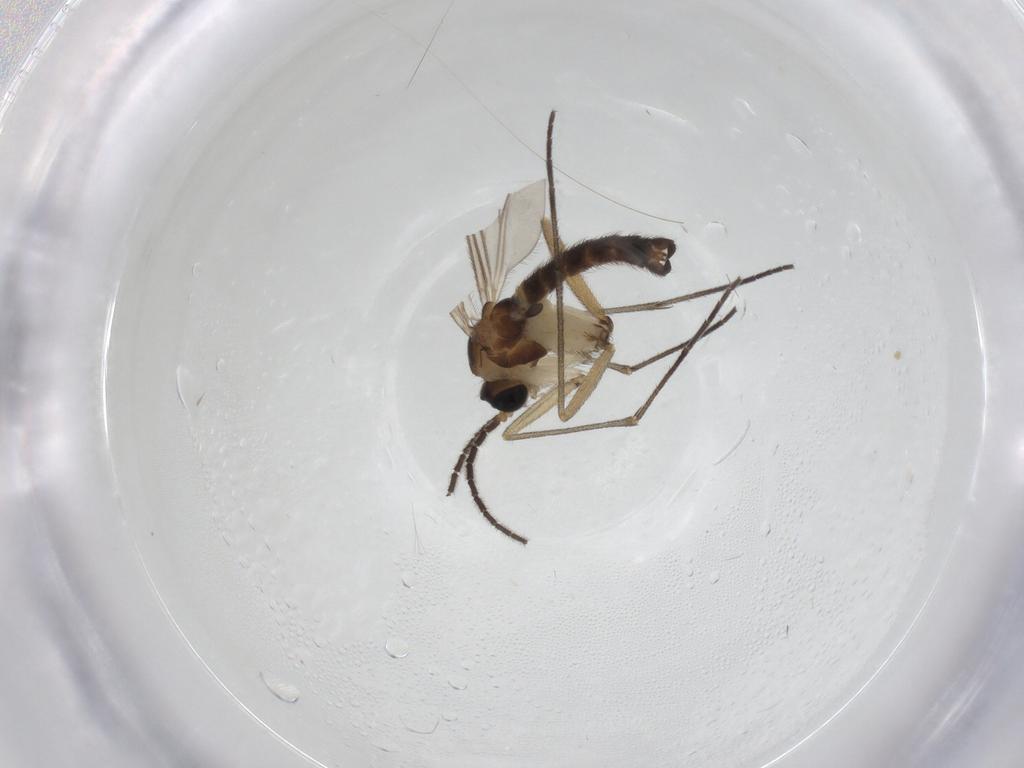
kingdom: Animalia
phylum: Arthropoda
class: Insecta
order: Diptera
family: Sciaridae
